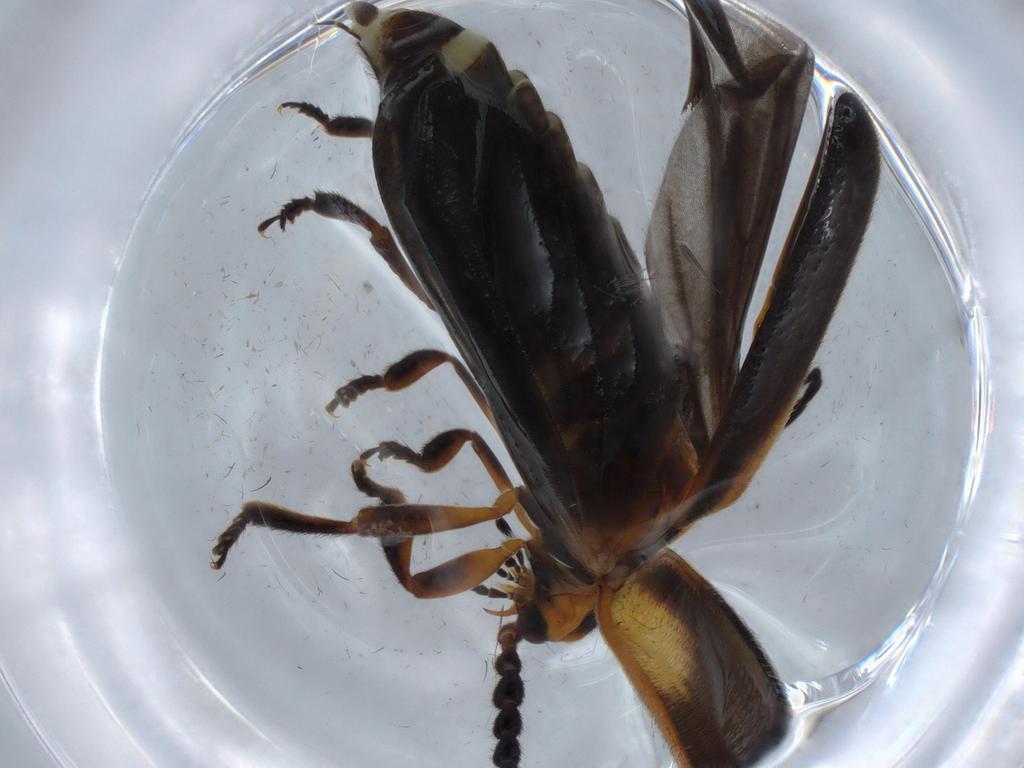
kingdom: Animalia
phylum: Arthropoda
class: Insecta
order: Coleoptera
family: Lycidae
